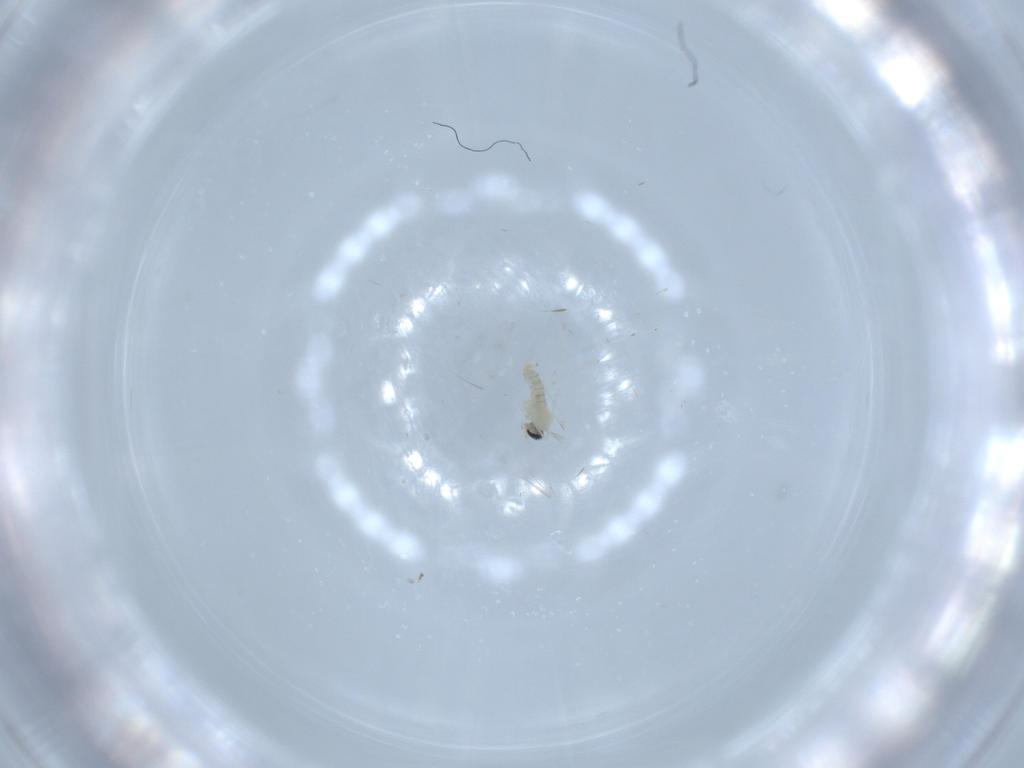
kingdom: Animalia
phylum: Arthropoda
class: Insecta
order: Diptera
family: Cecidomyiidae
